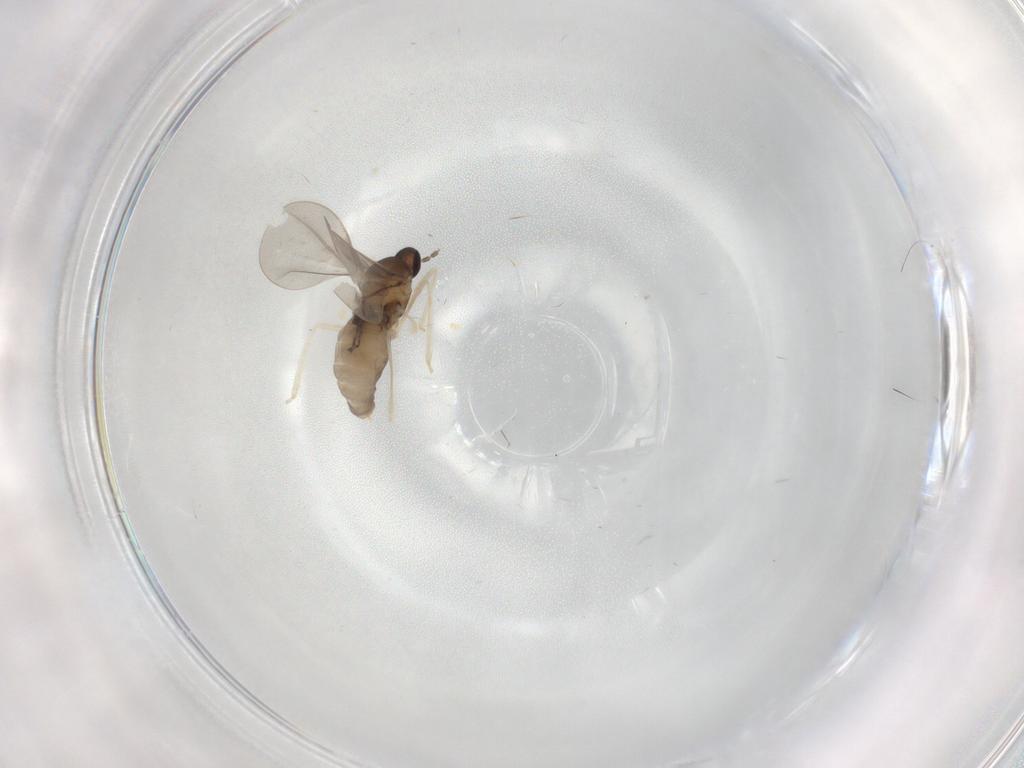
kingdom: Animalia
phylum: Arthropoda
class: Insecta
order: Diptera
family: Cecidomyiidae
